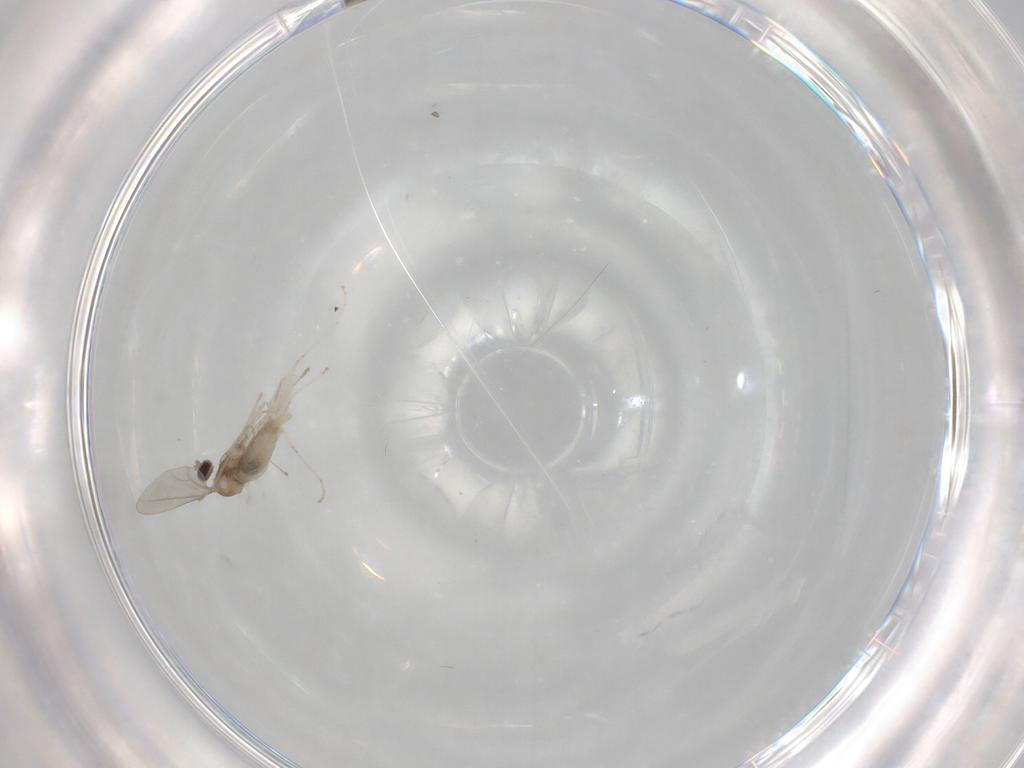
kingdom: Animalia
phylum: Arthropoda
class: Insecta
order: Diptera
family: Cecidomyiidae
